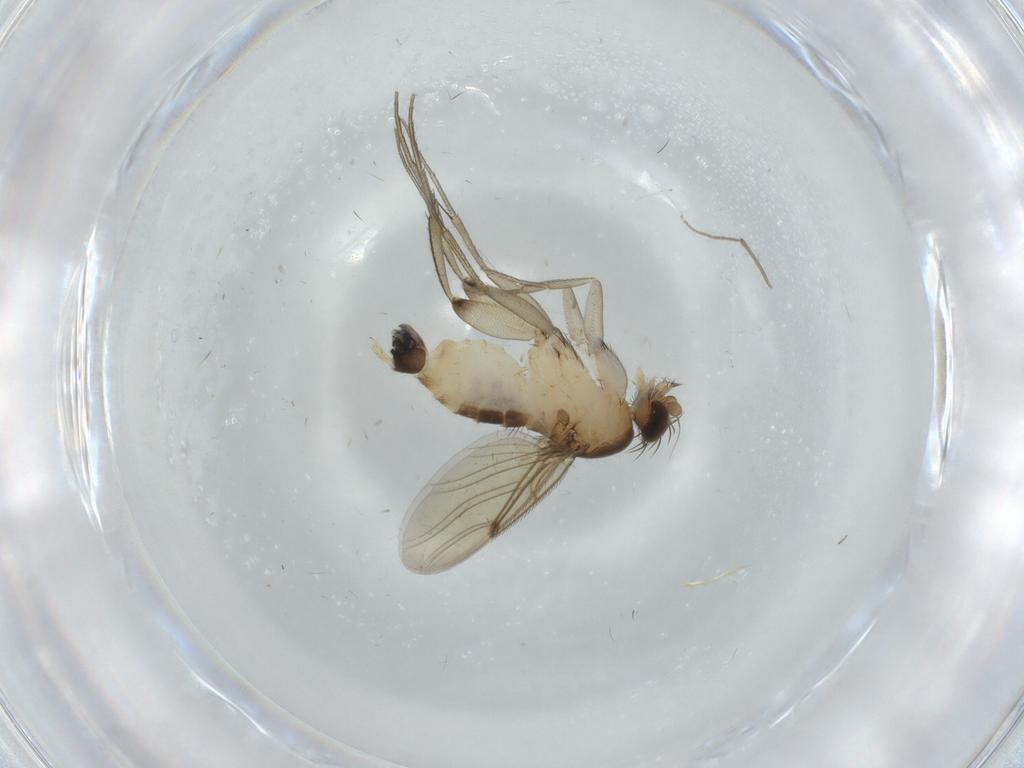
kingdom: Animalia
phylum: Arthropoda
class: Insecta
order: Diptera
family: Phoridae
